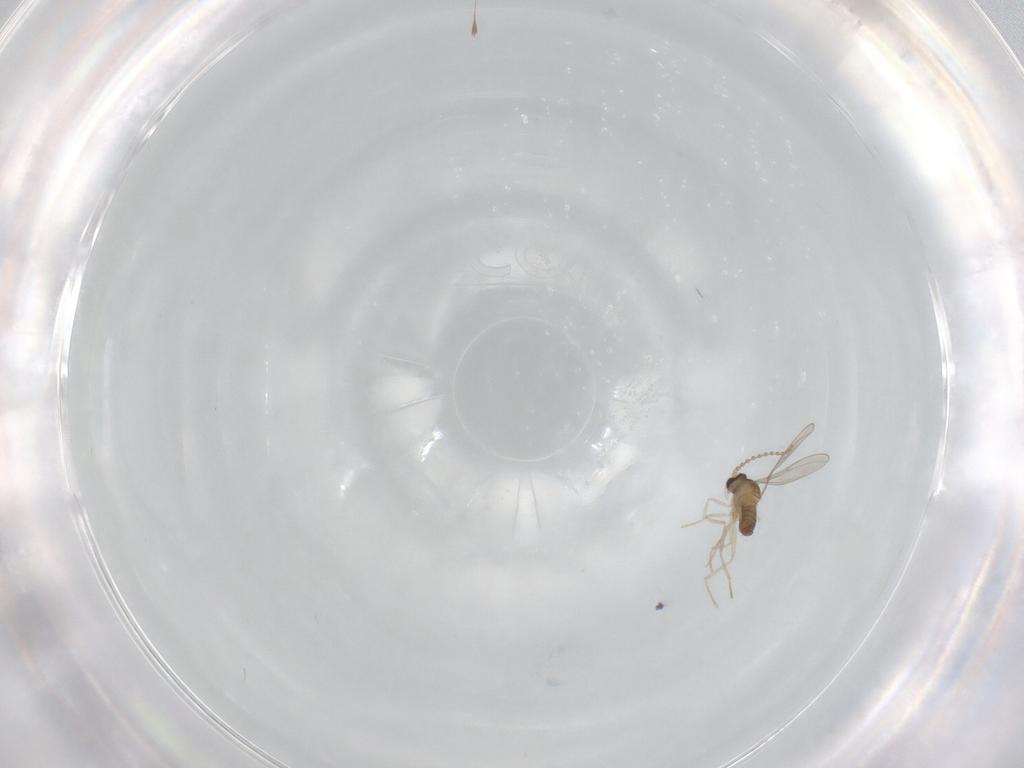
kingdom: Animalia
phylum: Arthropoda
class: Insecta
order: Diptera
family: Cecidomyiidae
